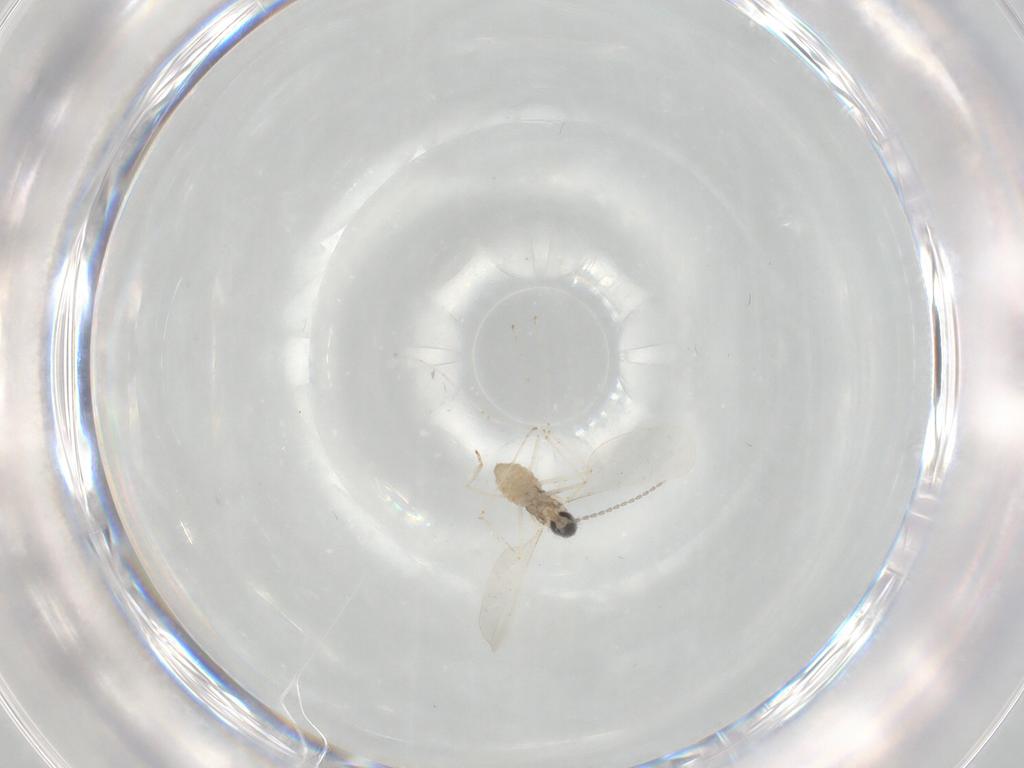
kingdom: Animalia
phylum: Arthropoda
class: Insecta
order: Diptera
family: Cecidomyiidae
